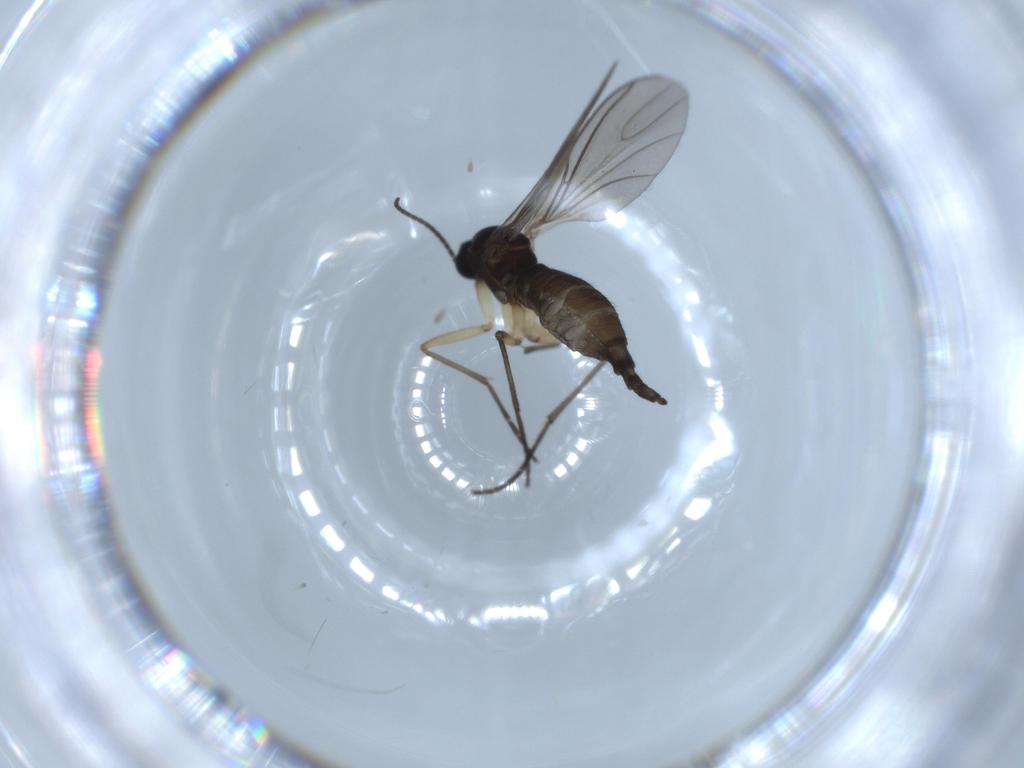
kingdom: Animalia
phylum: Arthropoda
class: Insecta
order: Diptera
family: Sciaridae
